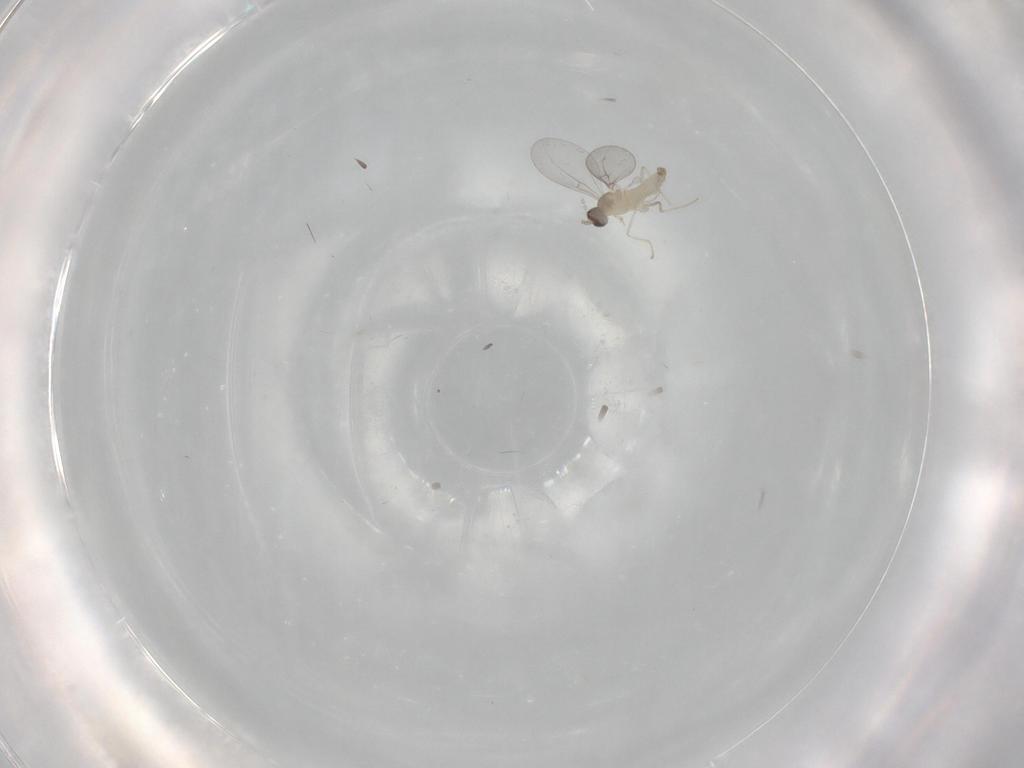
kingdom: Animalia
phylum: Arthropoda
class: Insecta
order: Diptera
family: Cecidomyiidae
